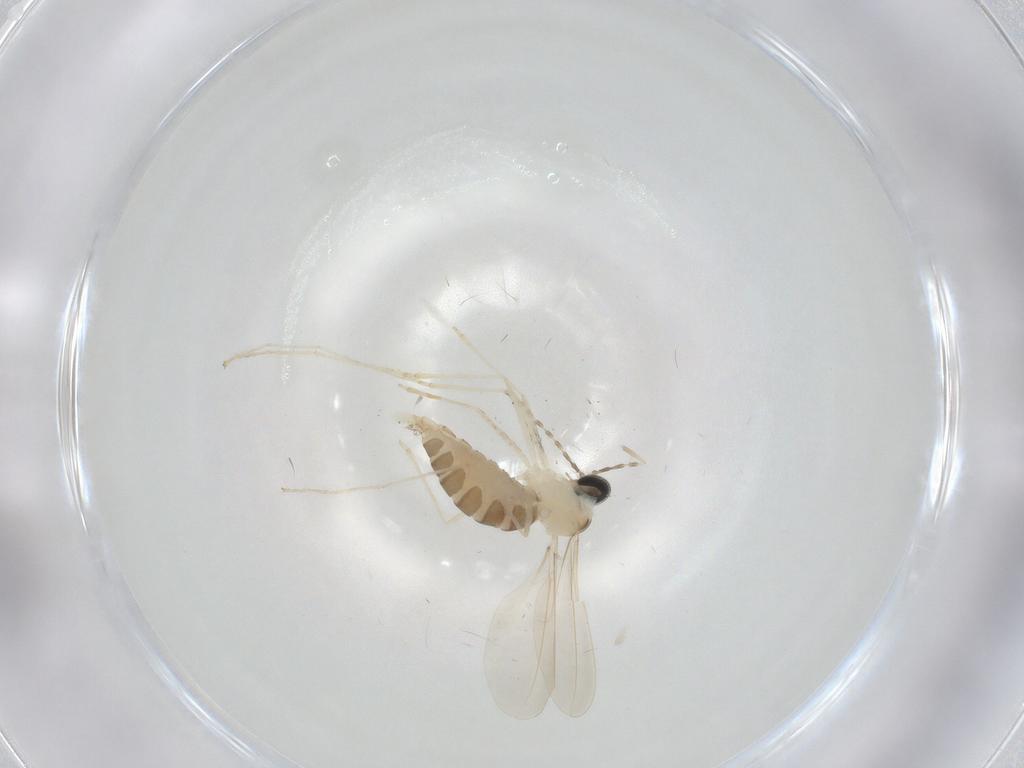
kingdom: Animalia
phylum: Arthropoda
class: Insecta
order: Diptera
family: Cecidomyiidae
